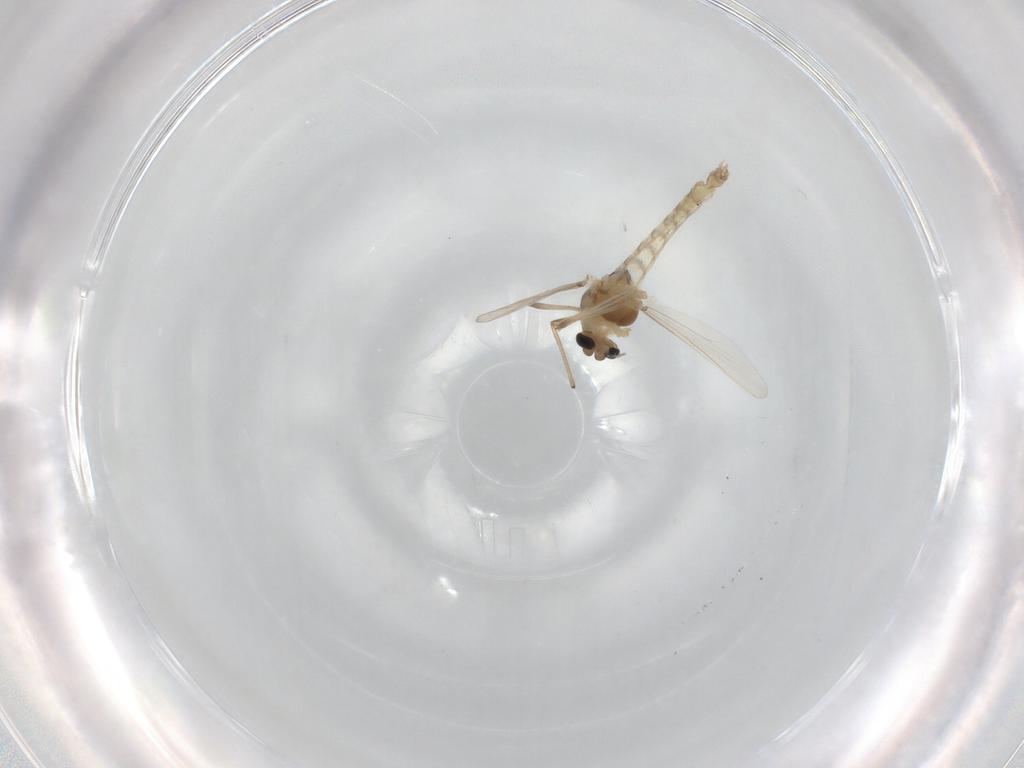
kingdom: Animalia
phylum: Arthropoda
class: Insecta
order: Diptera
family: Chironomidae
